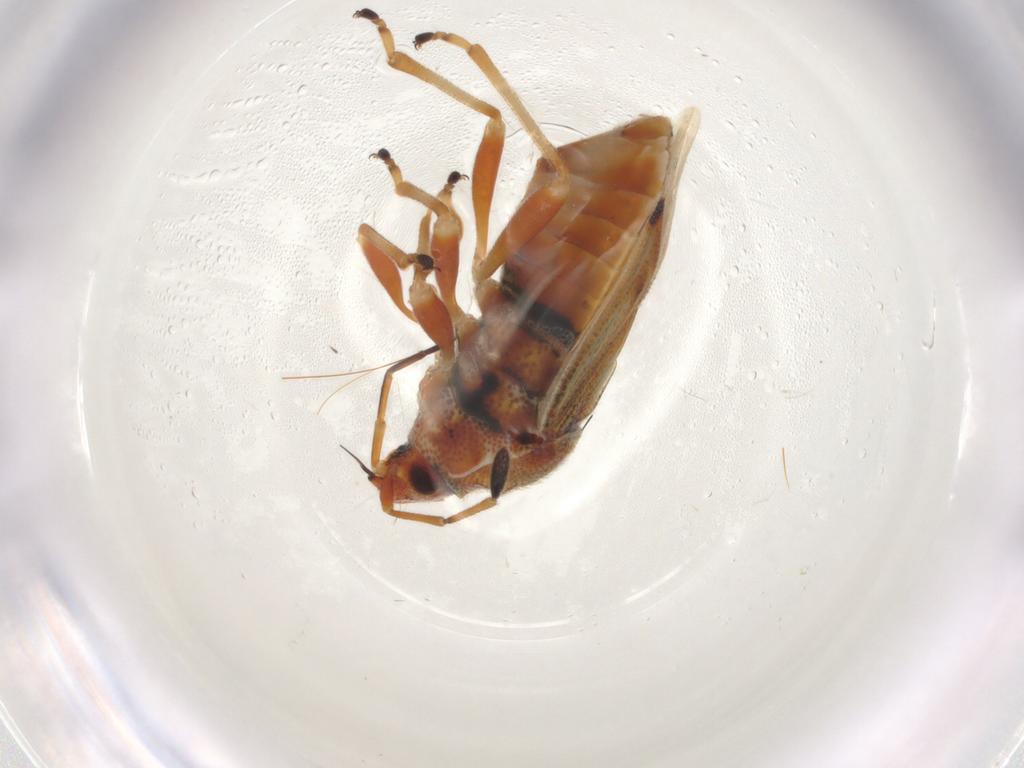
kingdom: Animalia
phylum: Arthropoda
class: Insecta
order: Hemiptera
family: Lygaeidae
